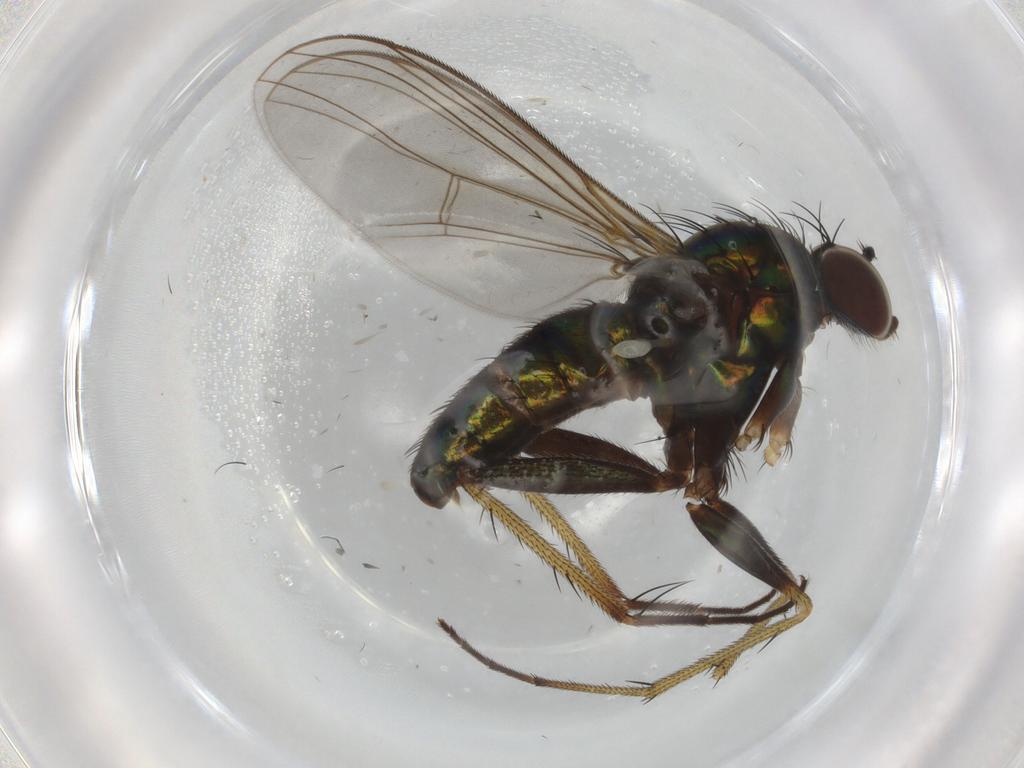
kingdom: Animalia
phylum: Arthropoda
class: Insecta
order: Diptera
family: Dolichopodidae
